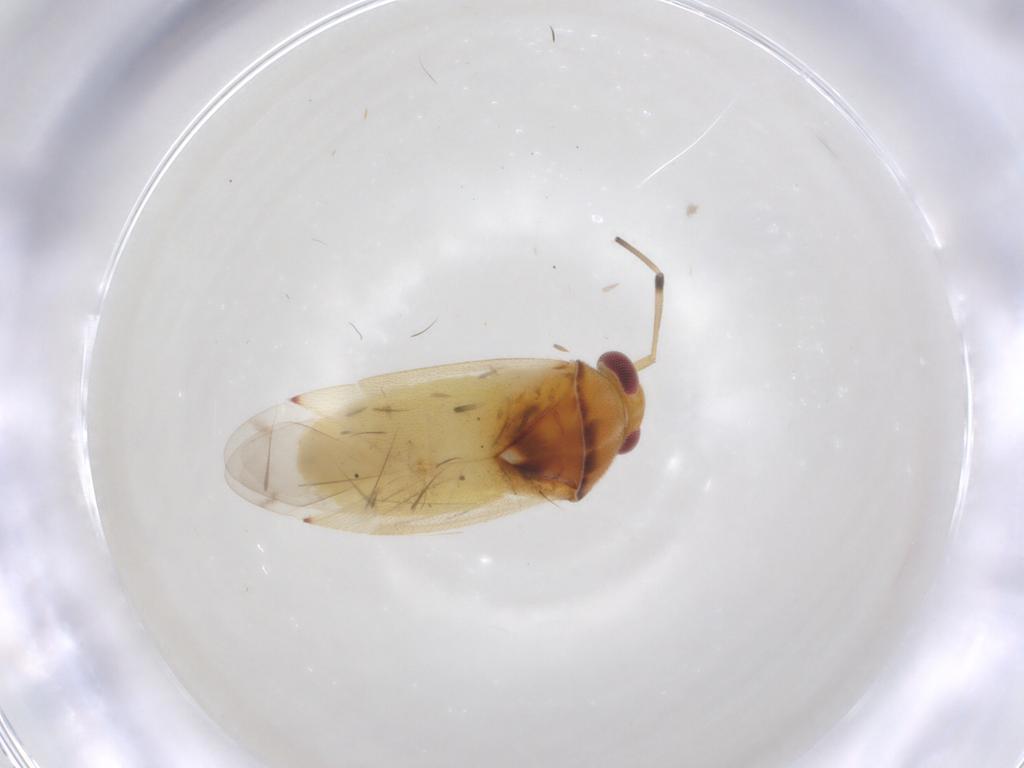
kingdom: Animalia
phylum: Arthropoda
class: Insecta
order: Hemiptera
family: Miridae
